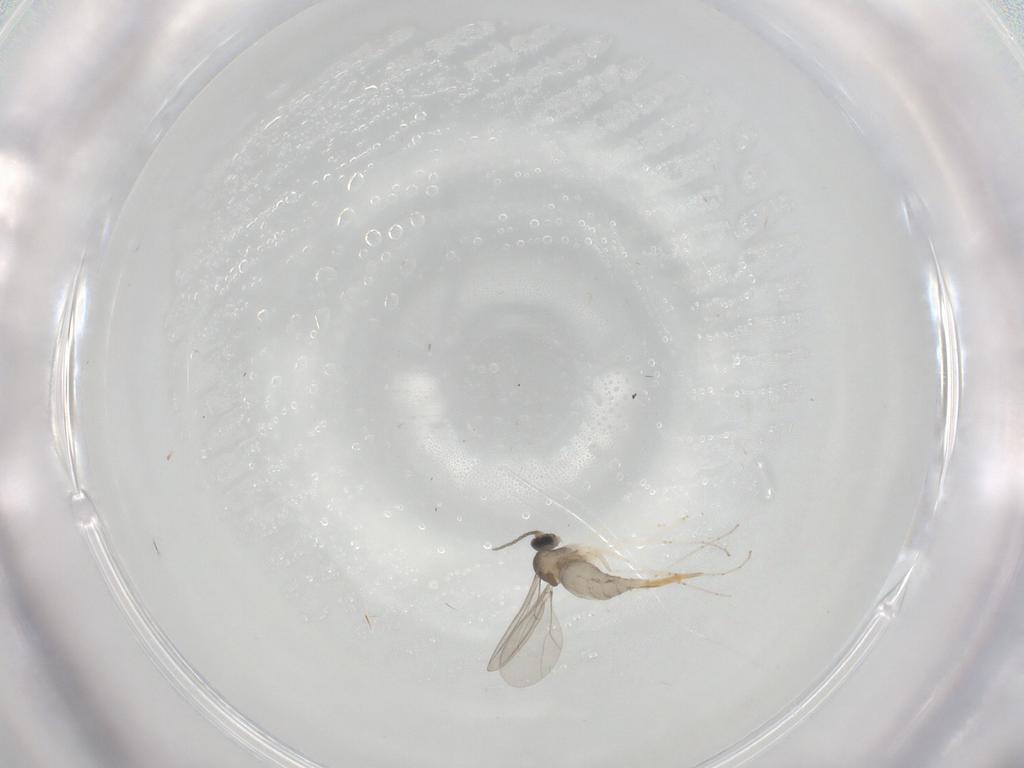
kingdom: Animalia
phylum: Arthropoda
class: Insecta
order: Diptera
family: Cecidomyiidae
